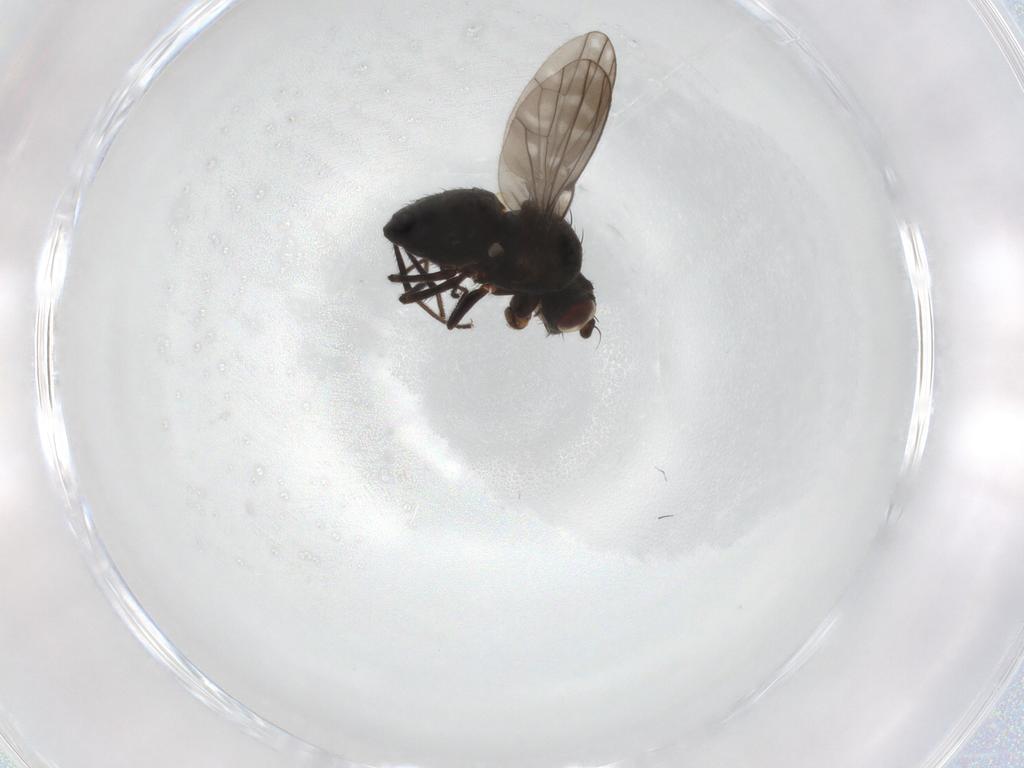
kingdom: Animalia
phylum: Arthropoda
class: Insecta
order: Diptera
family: Ephydridae
